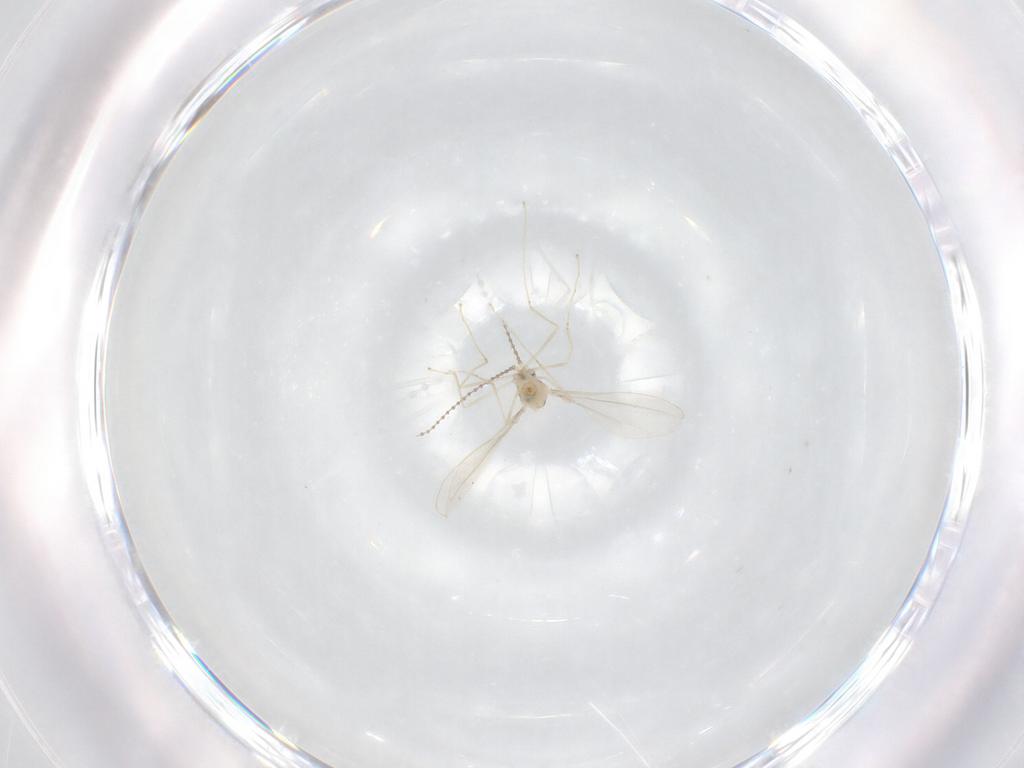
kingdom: Animalia
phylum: Arthropoda
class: Insecta
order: Diptera
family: Cecidomyiidae
